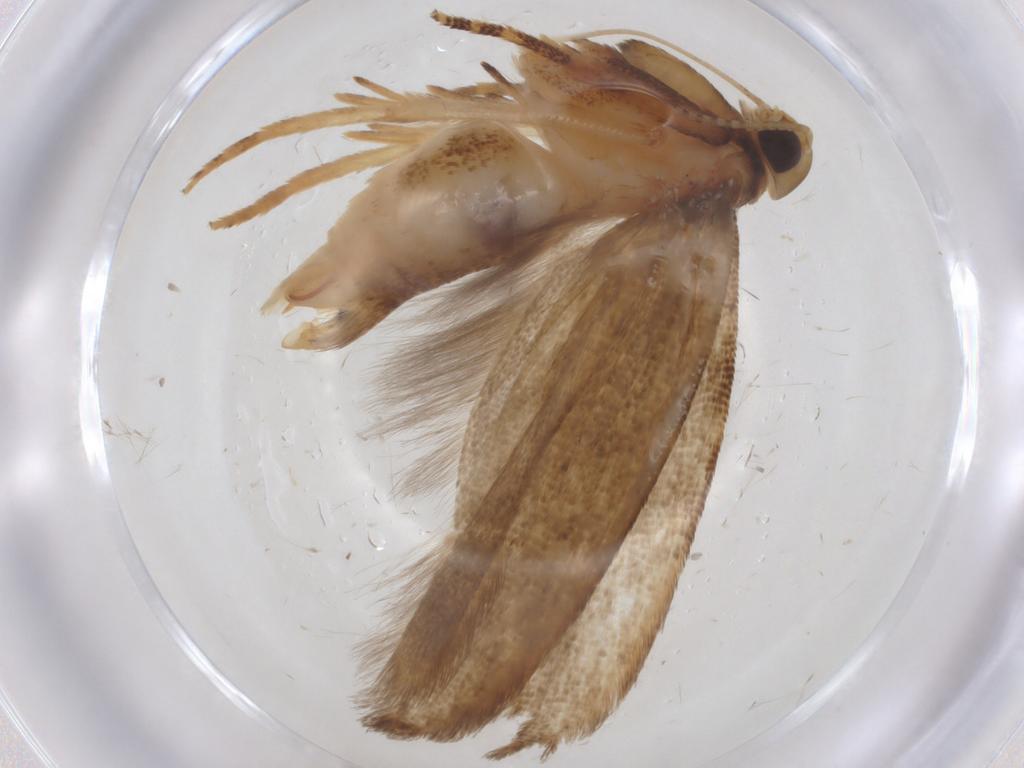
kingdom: Animalia
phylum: Arthropoda
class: Insecta
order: Lepidoptera
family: Gelechiidae
